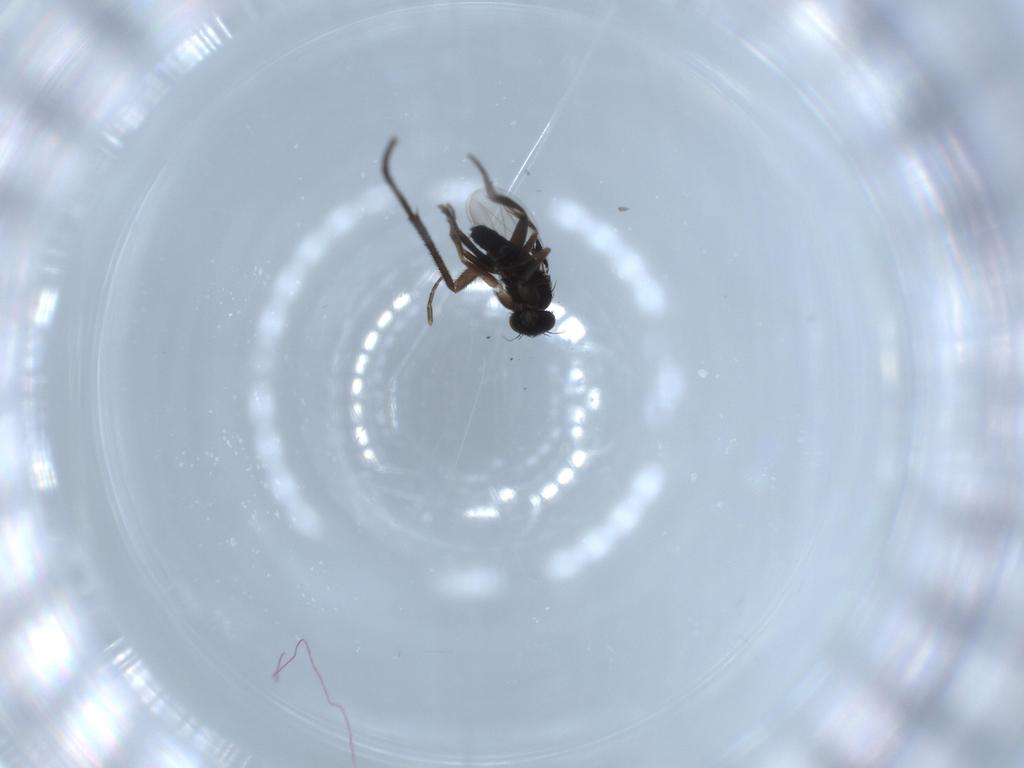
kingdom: Animalia
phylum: Arthropoda
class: Insecta
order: Diptera
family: Phoridae
